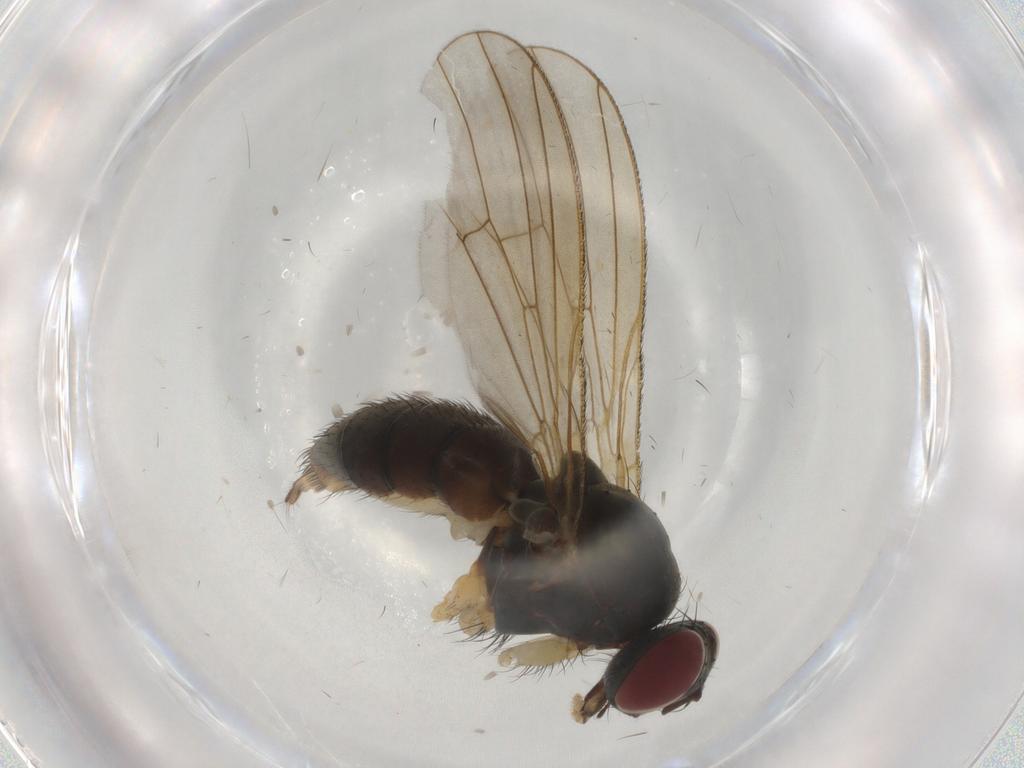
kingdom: Animalia
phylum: Arthropoda
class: Insecta
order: Diptera
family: Muscidae
